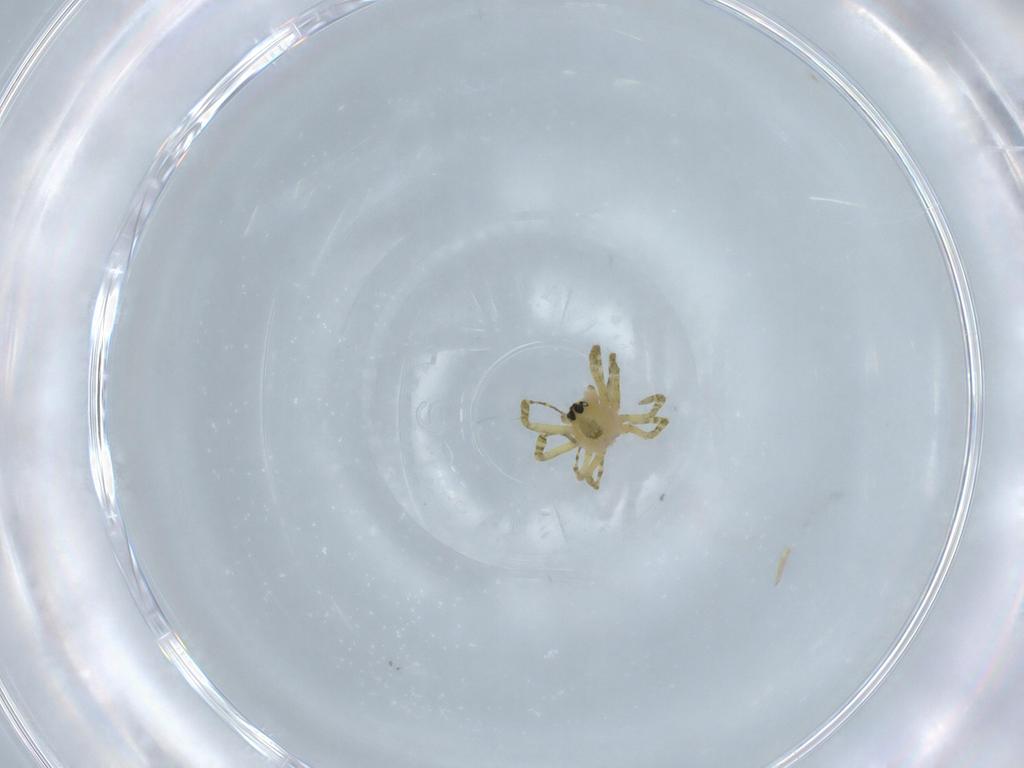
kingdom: Animalia
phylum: Arthropoda
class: Arachnida
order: Araneae
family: Linyphiidae
